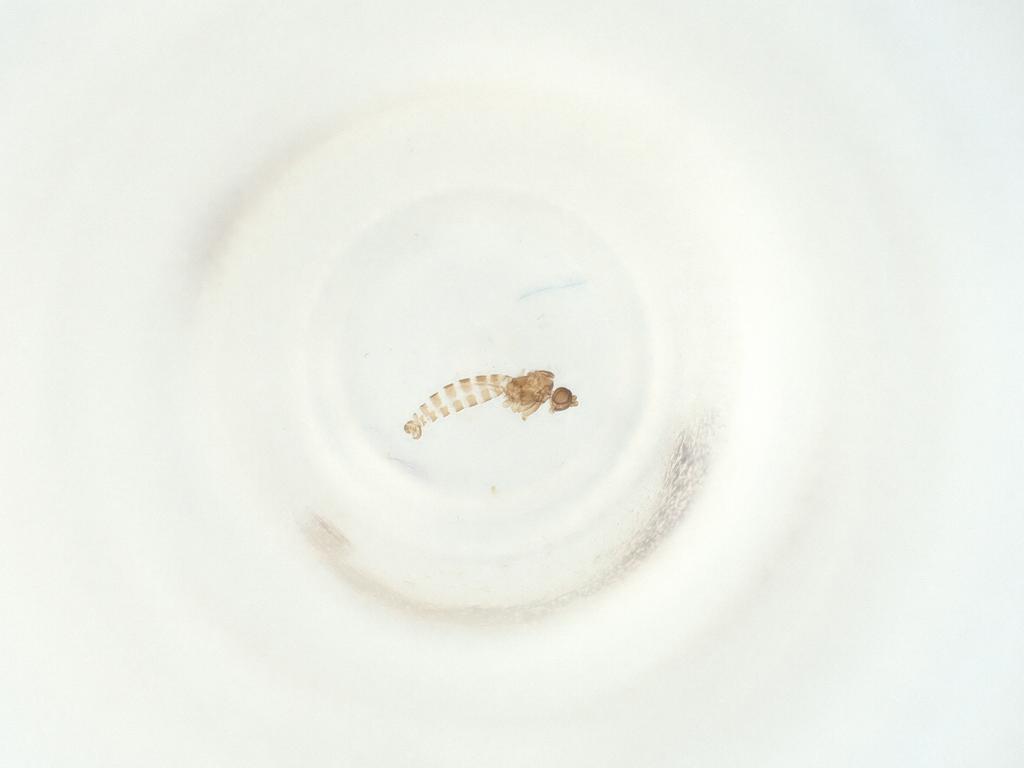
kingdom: Animalia
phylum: Arthropoda
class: Insecta
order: Diptera
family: Sciaridae
